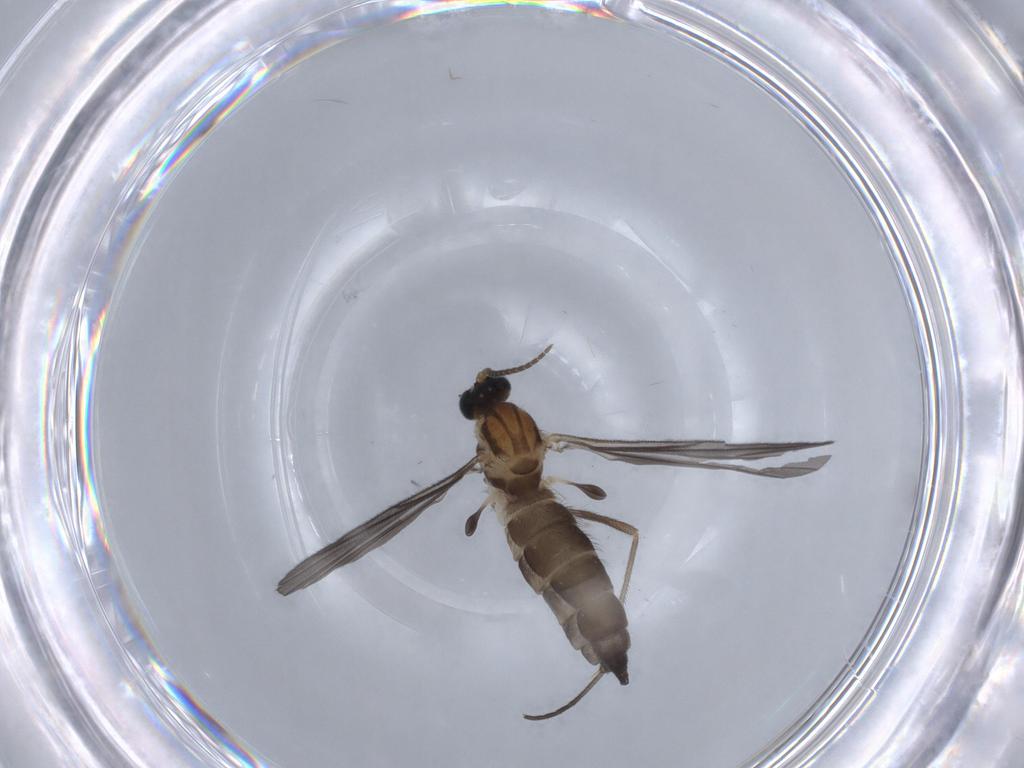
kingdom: Animalia
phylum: Arthropoda
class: Insecta
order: Diptera
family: Sciaridae
